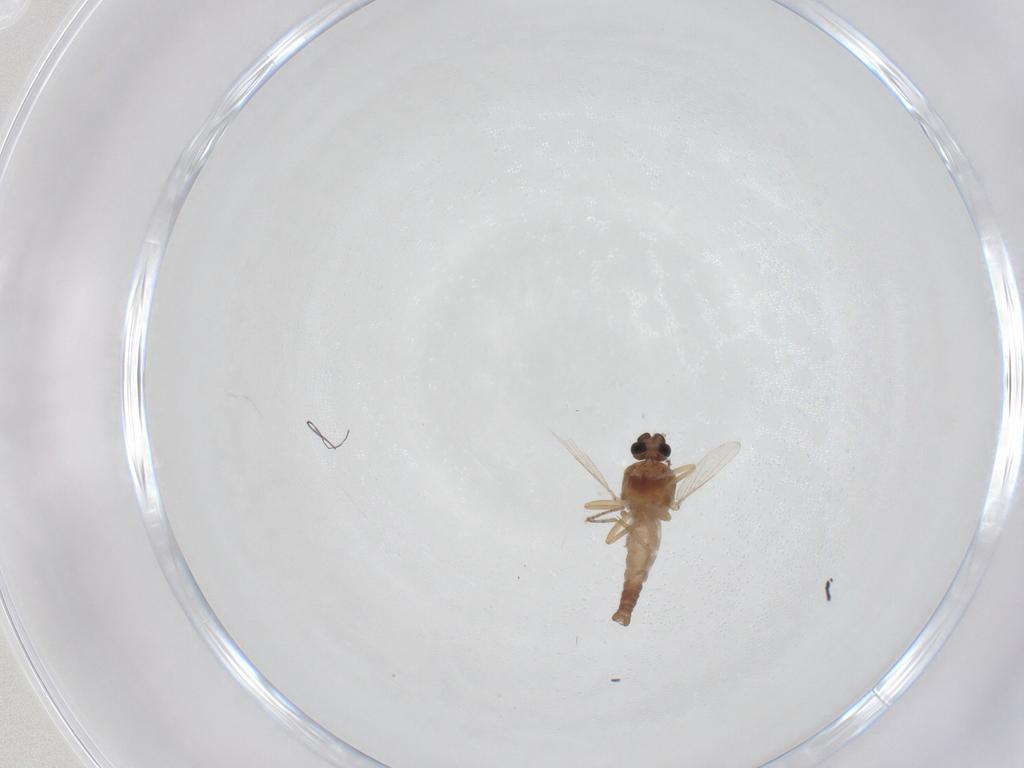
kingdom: Animalia
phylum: Arthropoda
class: Insecta
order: Diptera
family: Ceratopogonidae
